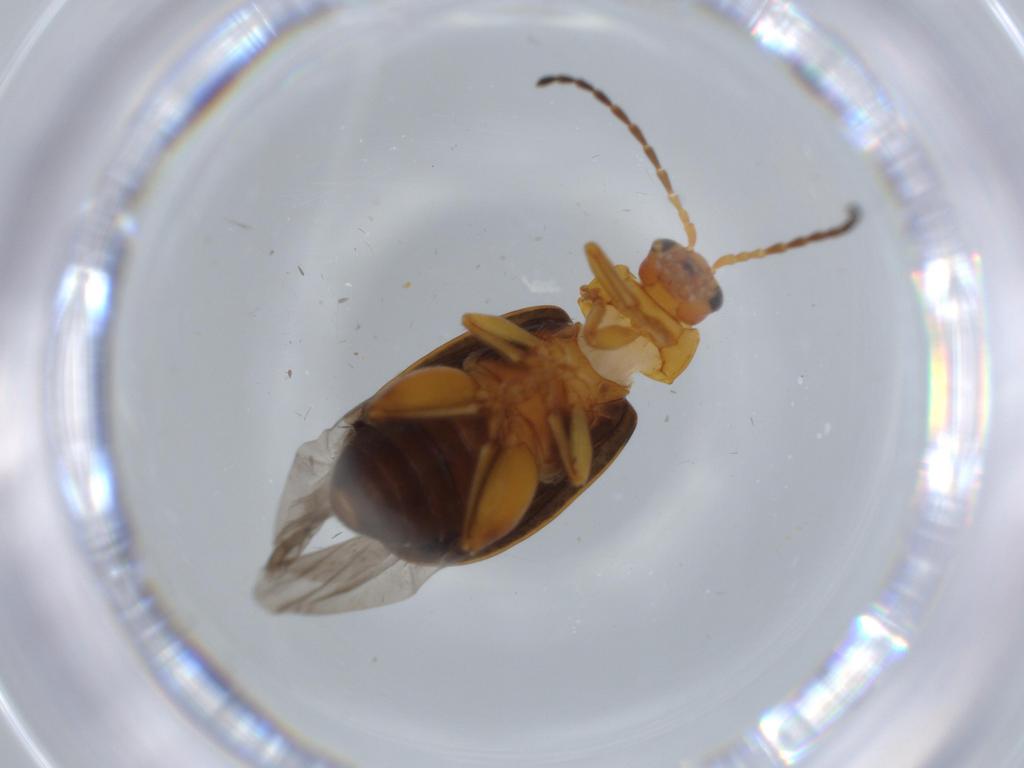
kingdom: Animalia
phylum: Arthropoda
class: Insecta
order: Coleoptera
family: Chrysomelidae
